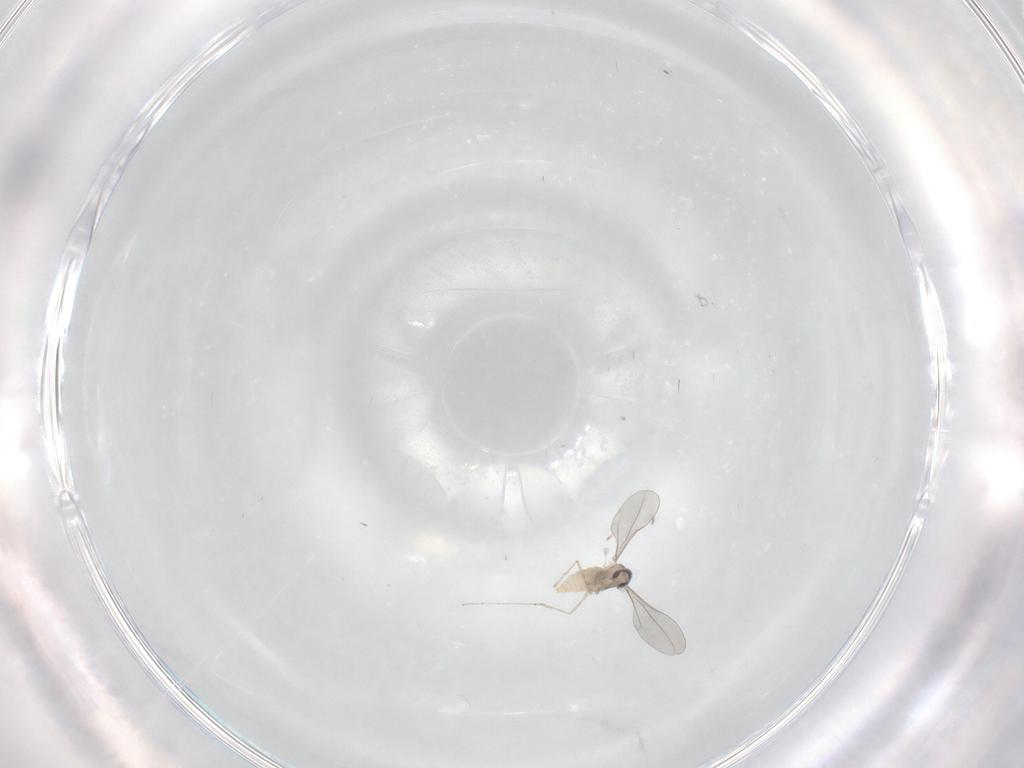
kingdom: Animalia
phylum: Arthropoda
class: Insecta
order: Diptera
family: Cecidomyiidae
